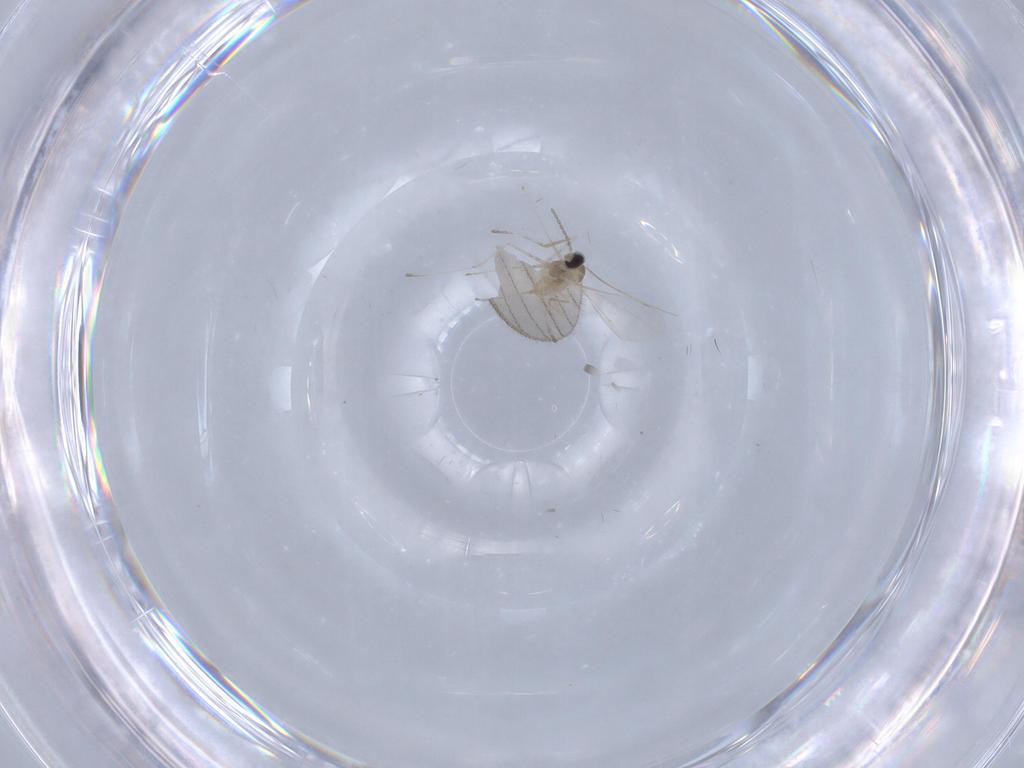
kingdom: Animalia
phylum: Arthropoda
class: Insecta
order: Diptera
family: Cecidomyiidae
